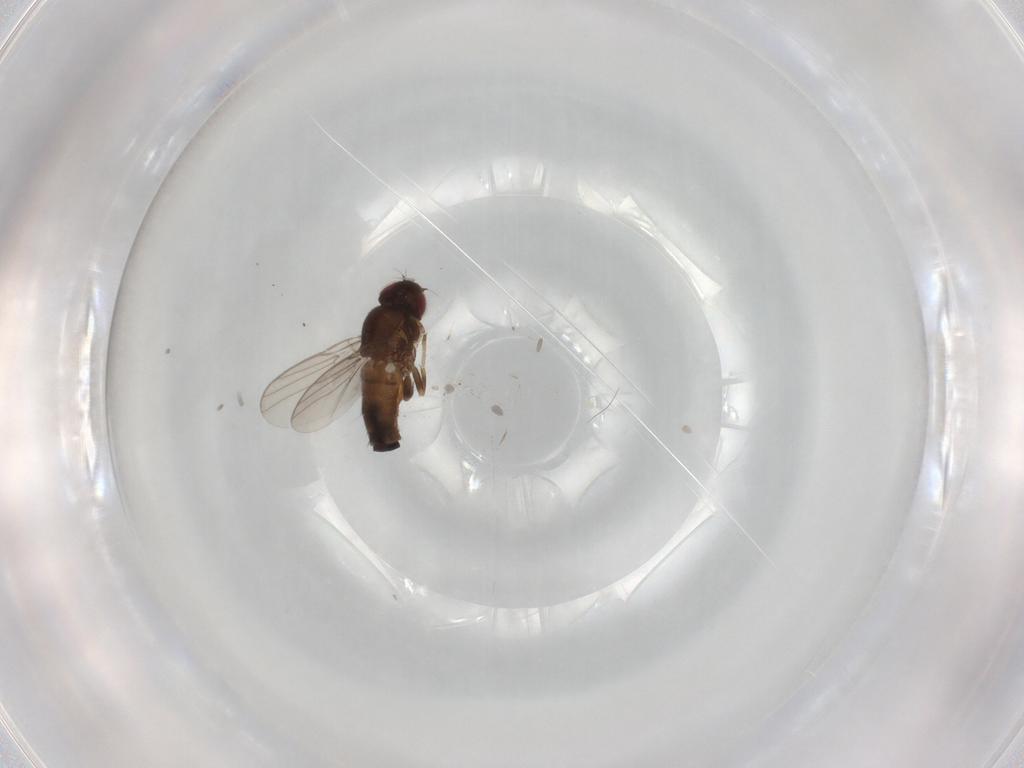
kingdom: Animalia
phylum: Arthropoda
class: Insecta
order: Diptera
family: Chloropidae
